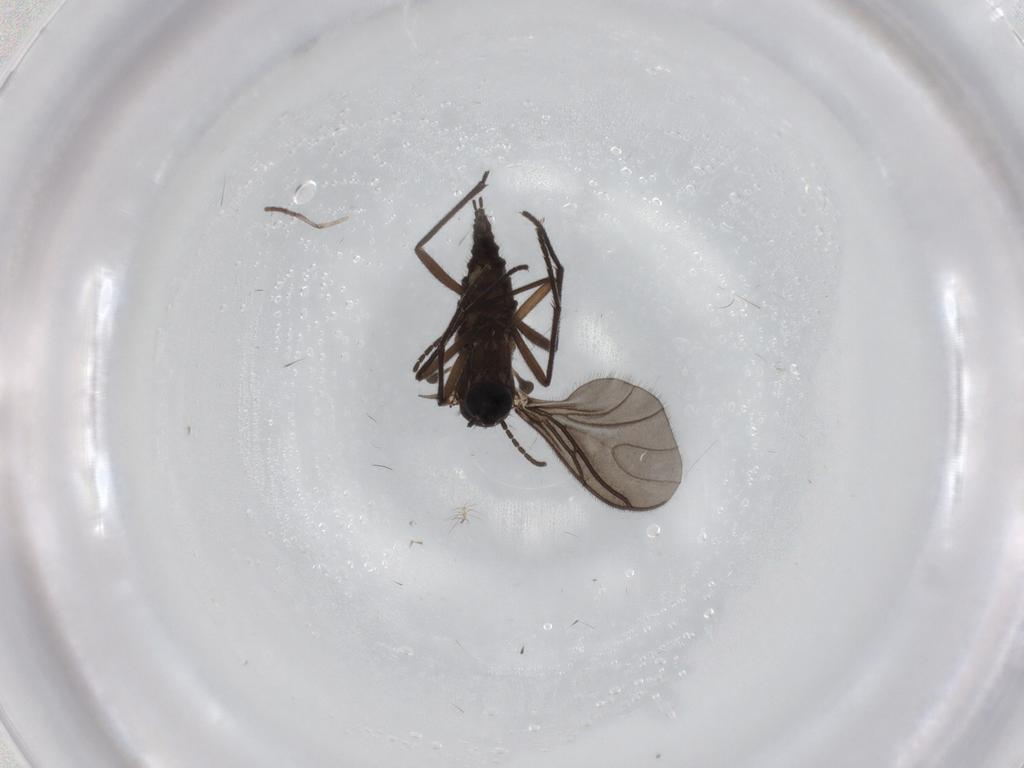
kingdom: Animalia
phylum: Arthropoda
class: Insecta
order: Diptera
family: Sciaridae
